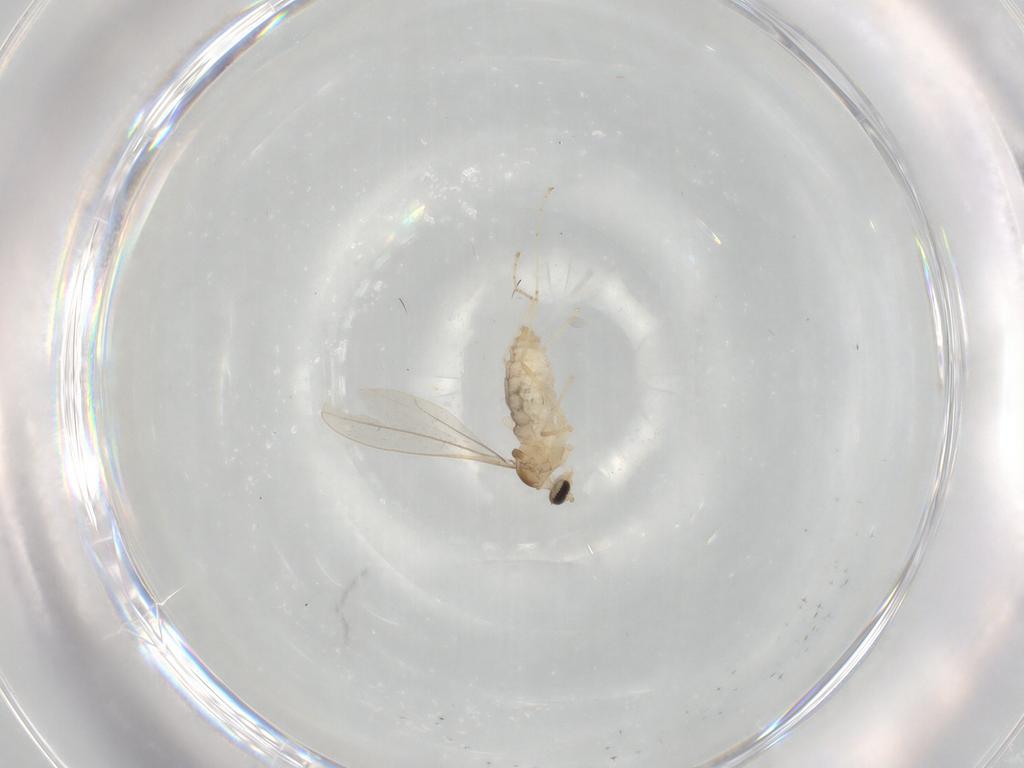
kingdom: Animalia
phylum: Arthropoda
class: Insecta
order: Diptera
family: Cecidomyiidae
